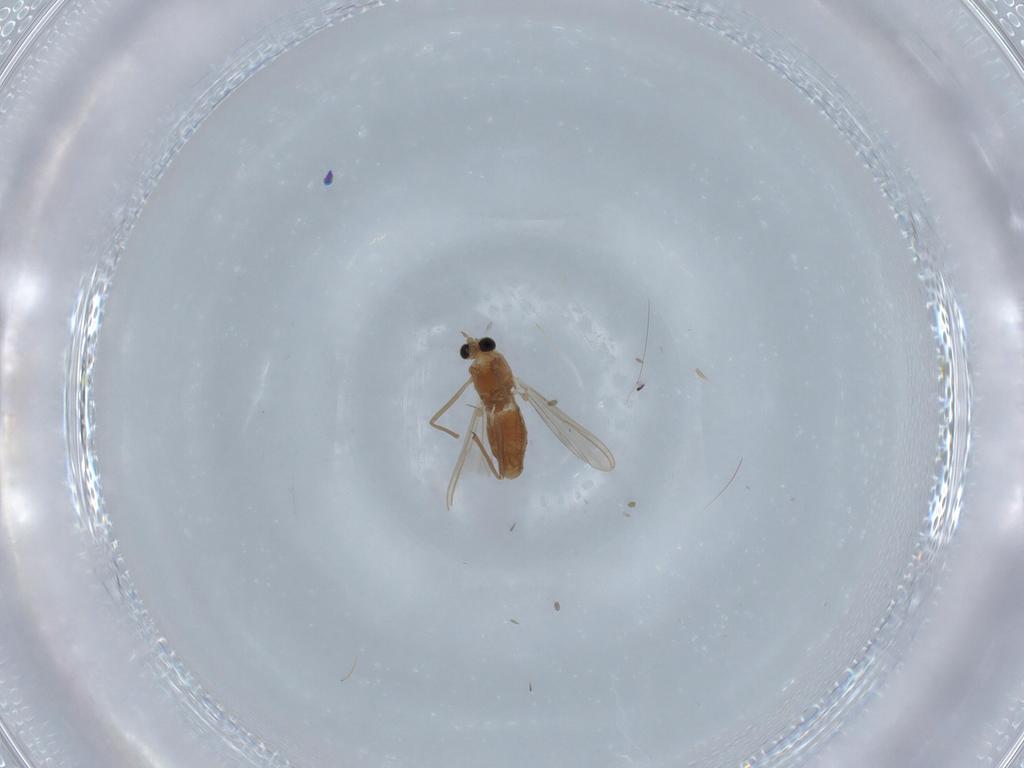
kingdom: Animalia
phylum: Arthropoda
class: Insecta
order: Diptera
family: Chironomidae
